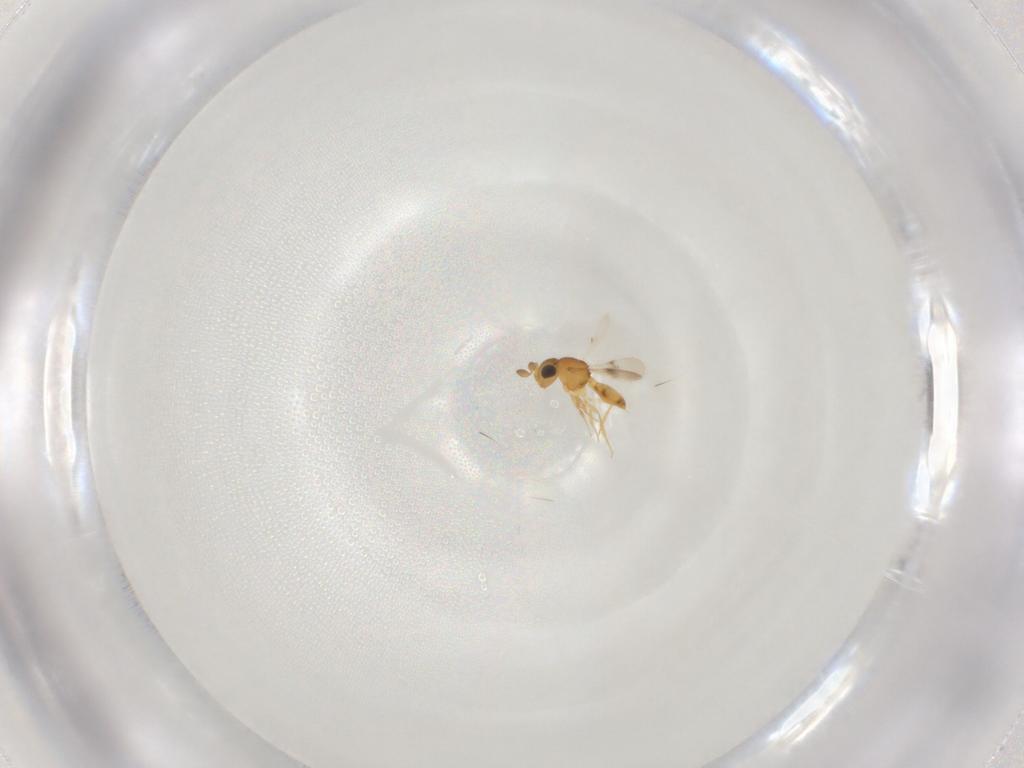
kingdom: Animalia
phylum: Arthropoda
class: Insecta
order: Hymenoptera
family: Scelionidae
